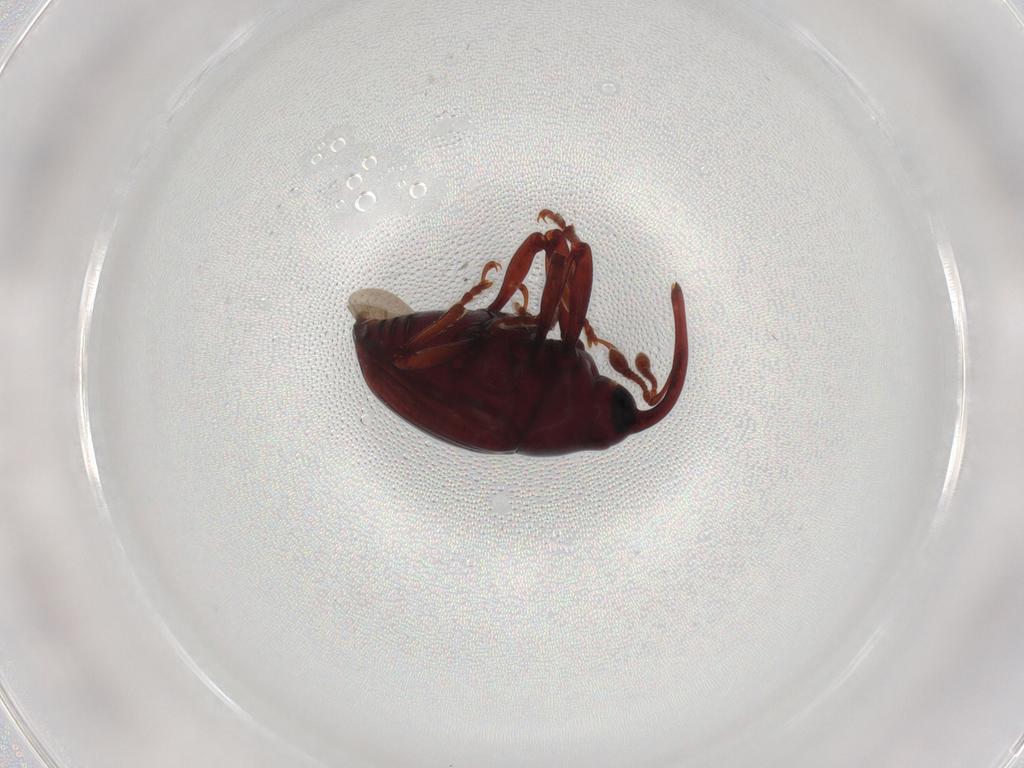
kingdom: Animalia
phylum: Arthropoda
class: Insecta
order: Coleoptera
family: Curculionidae
